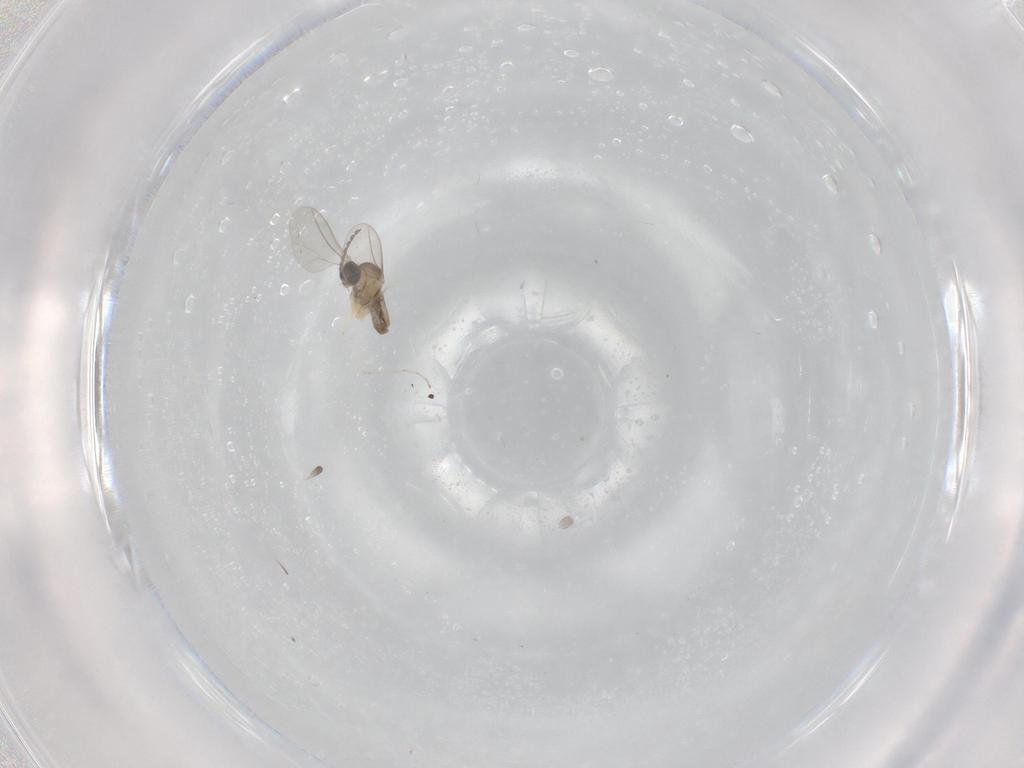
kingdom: Animalia
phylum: Arthropoda
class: Insecta
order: Diptera
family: Cecidomyiidae
